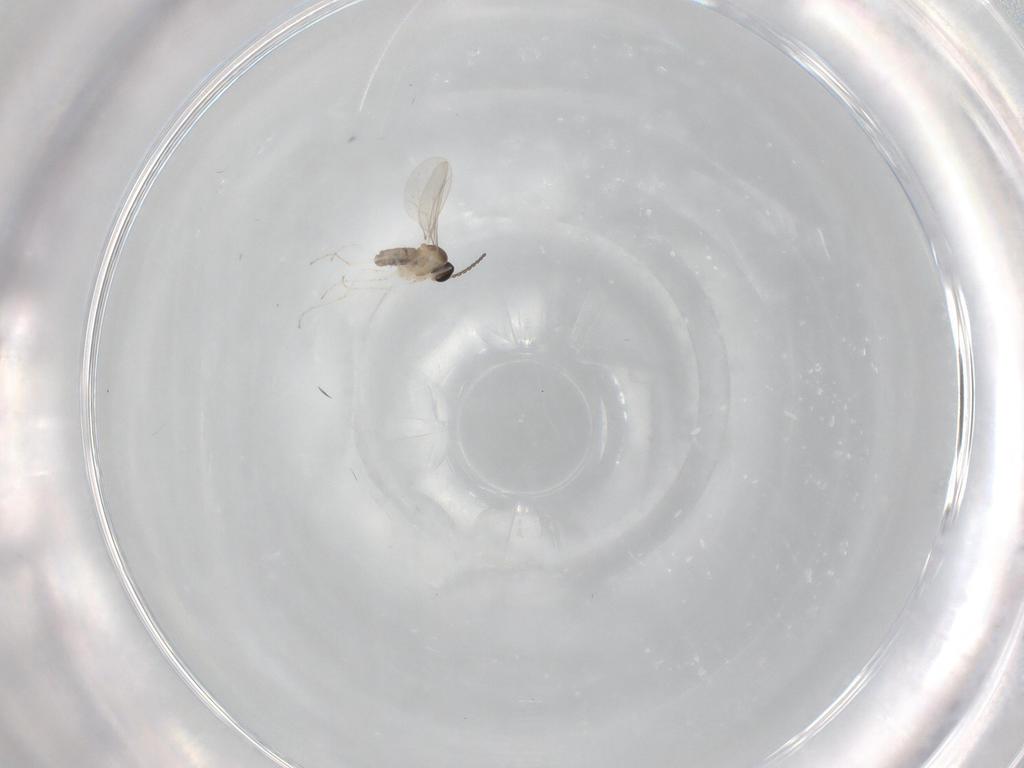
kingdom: Animalia
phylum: Arthropoda
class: Insecta
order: Diptera
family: Cecidomyiidae
